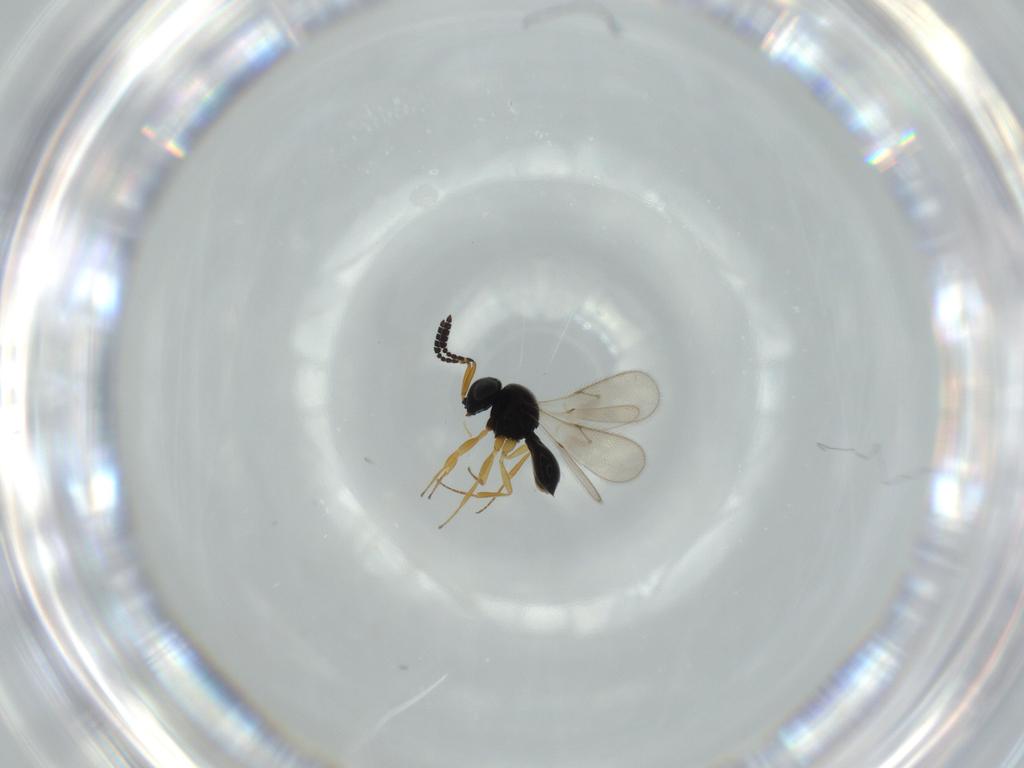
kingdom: Animalia
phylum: Arthropoda
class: Insecta
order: Hymenoptera
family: Scelionidae
